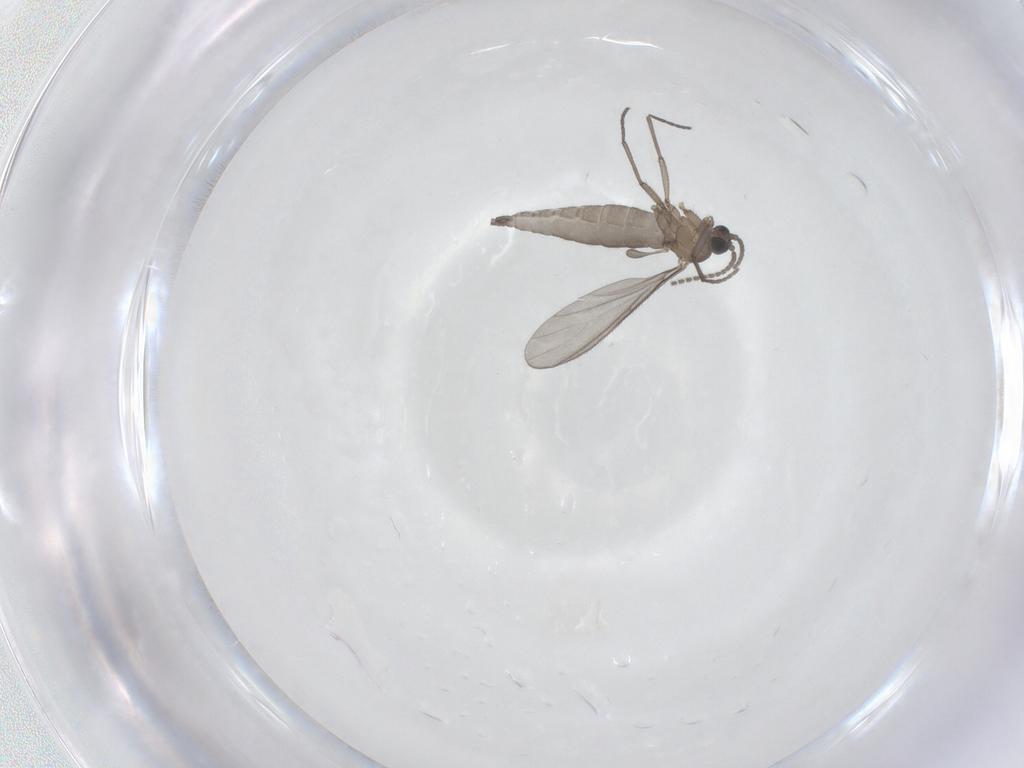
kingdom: Animalia
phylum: Arthropoda
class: Insecta
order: Diptera
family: Sciaridae
